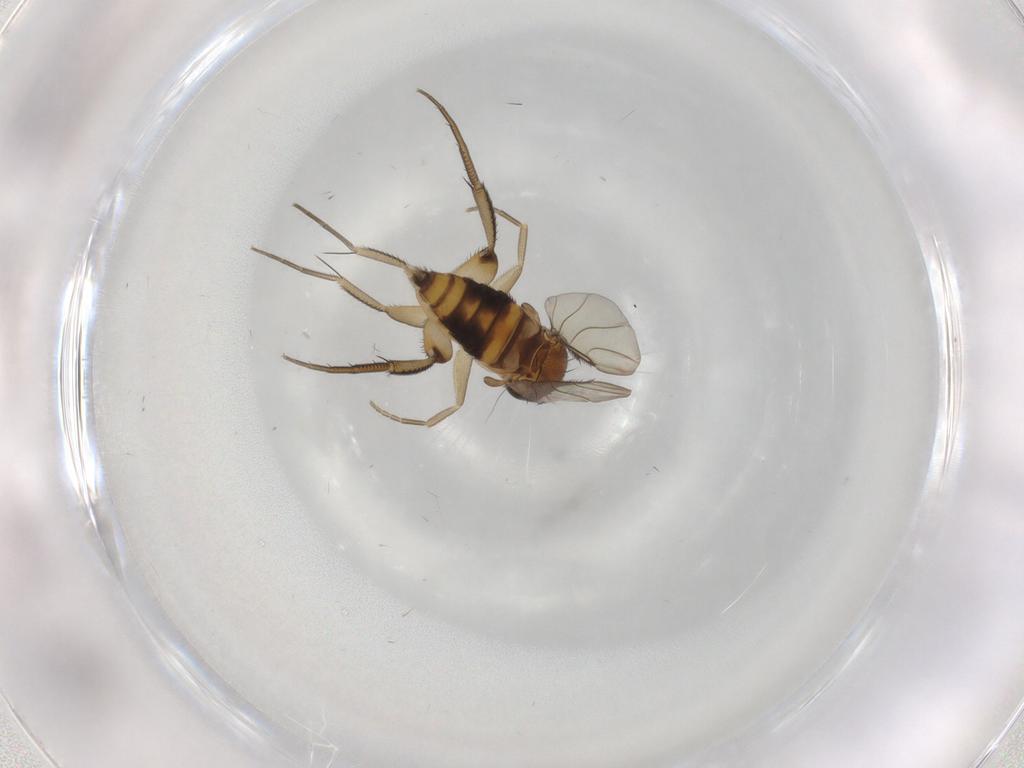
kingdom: Animalia
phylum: Arthropoda
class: Insecta
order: Diptera
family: Phoridae
